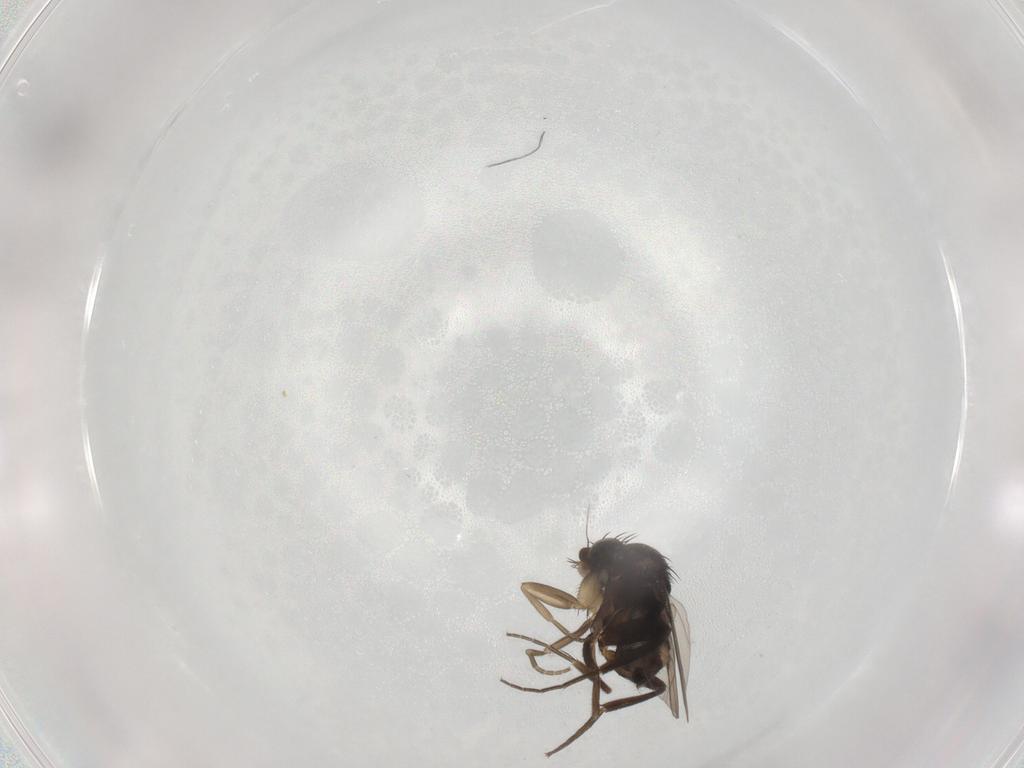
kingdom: Animalia
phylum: Arthropoda
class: Insecta
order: Diptera
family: Phoridae
